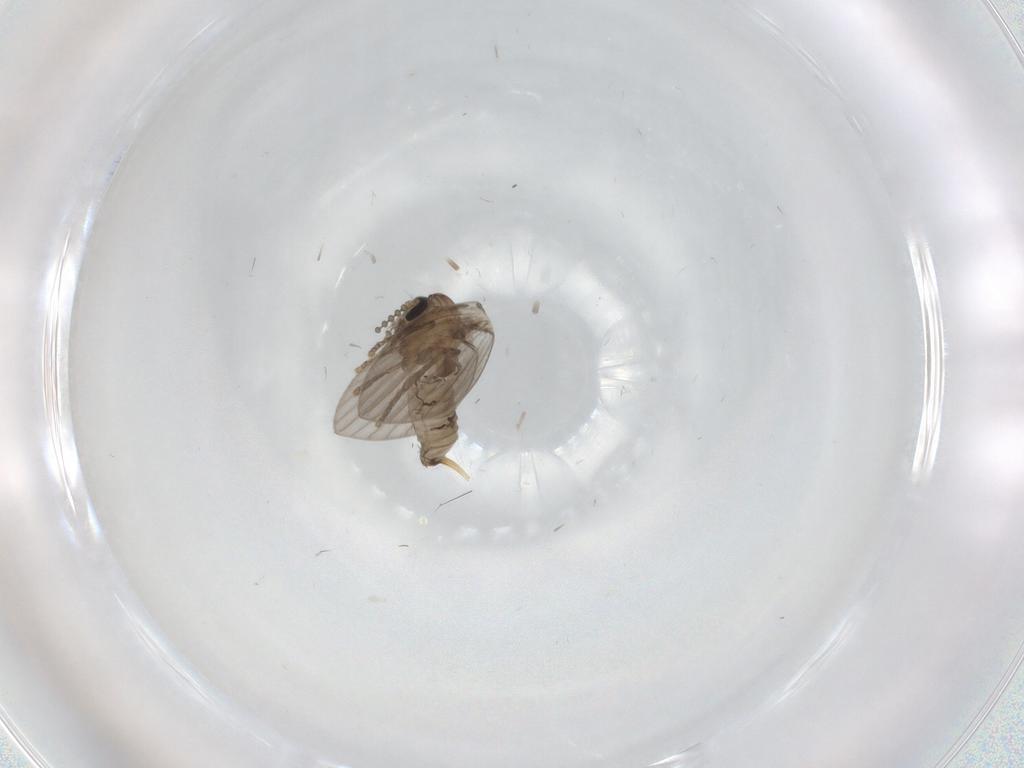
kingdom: Animalia
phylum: Arthropoda
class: Insecta
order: Diptera
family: Psychodidae
